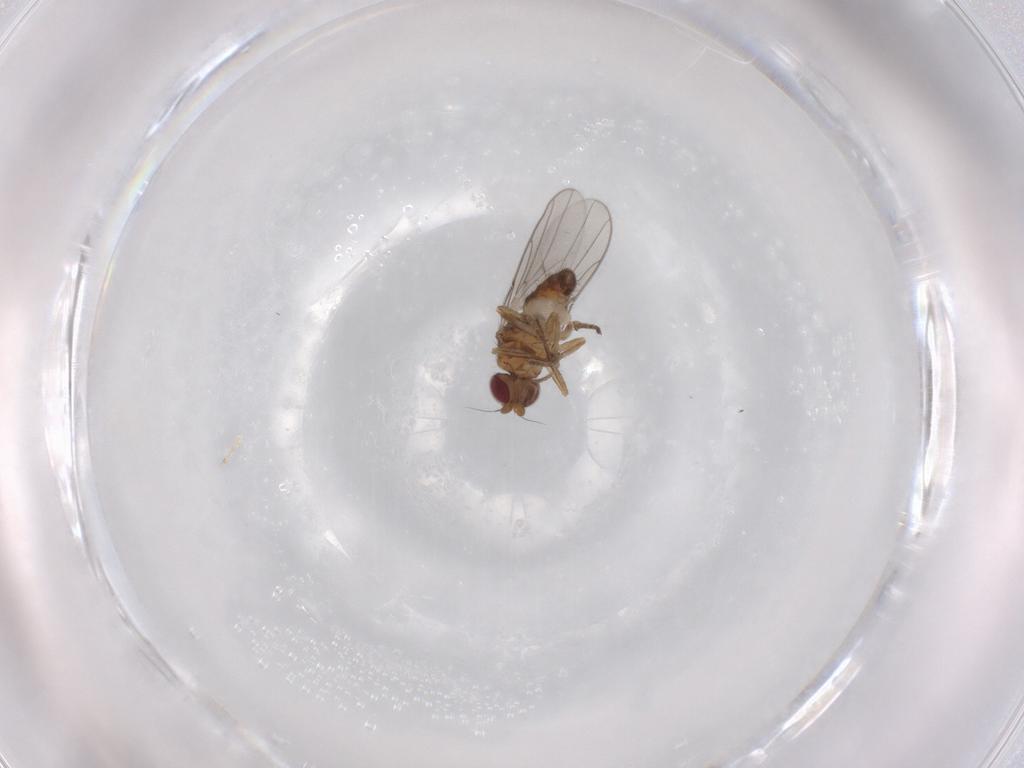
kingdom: Animalia
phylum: Arthropoda
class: Insecta
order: Diptera
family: Chloropidae
